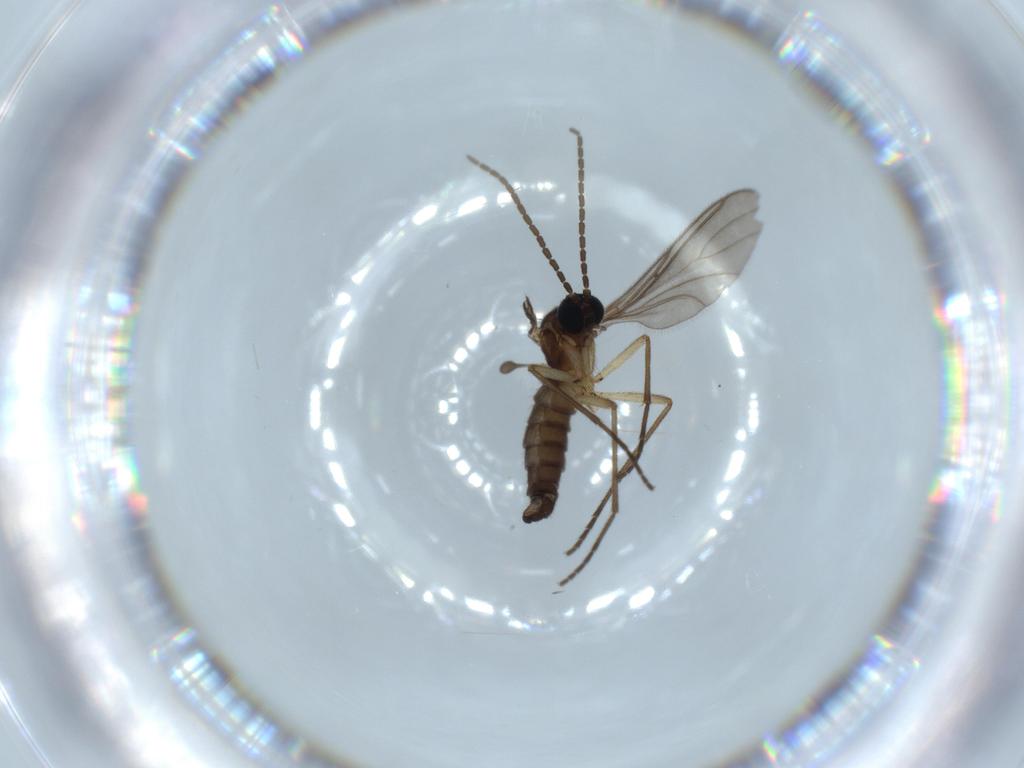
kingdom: Animalia
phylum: Arthropoda
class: Insecta
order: Diptera
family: Sciaridae
